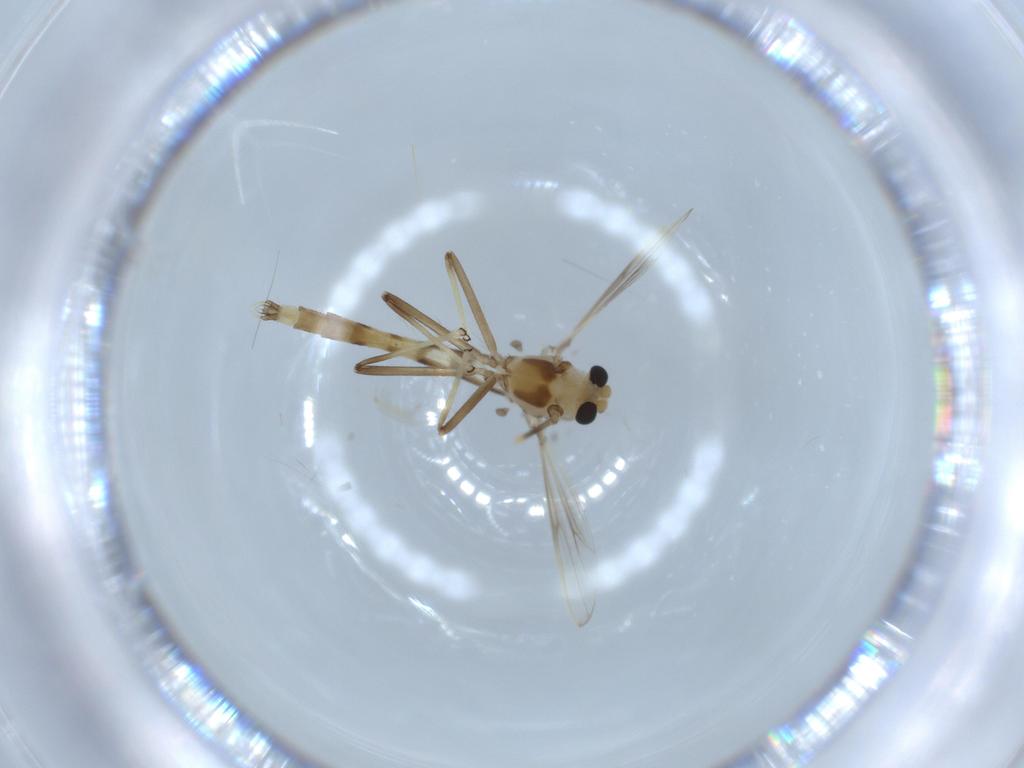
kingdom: Animalia
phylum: Arthropoda
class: Insecta
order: Diptera
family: Chironomidae
